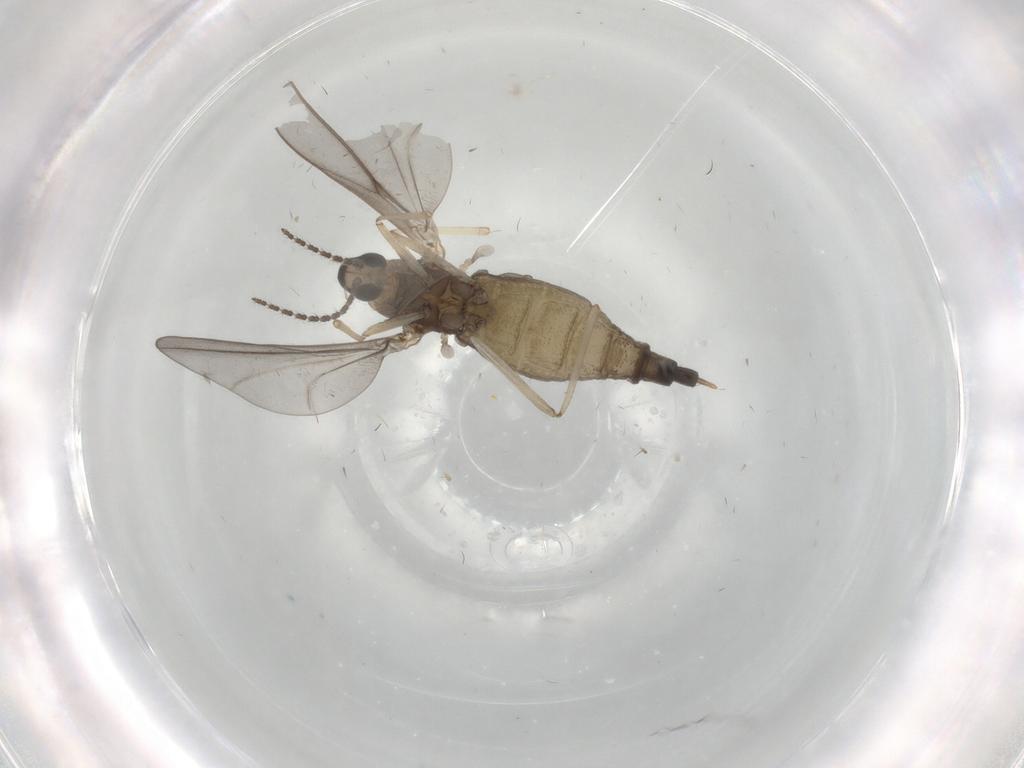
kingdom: Animalia
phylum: Arthropoda
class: Insecta
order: Diptera
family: Cecidomyiidae
